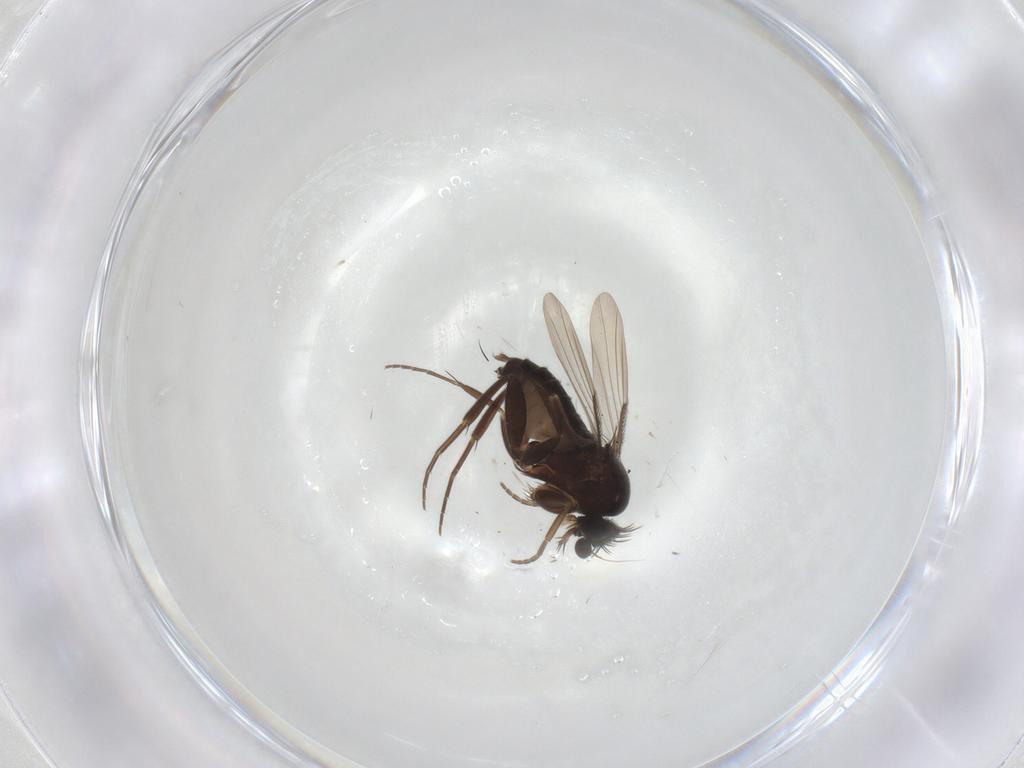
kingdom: Animalia
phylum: Arthropoda
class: Insecta
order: Diptera
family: Phoridae
